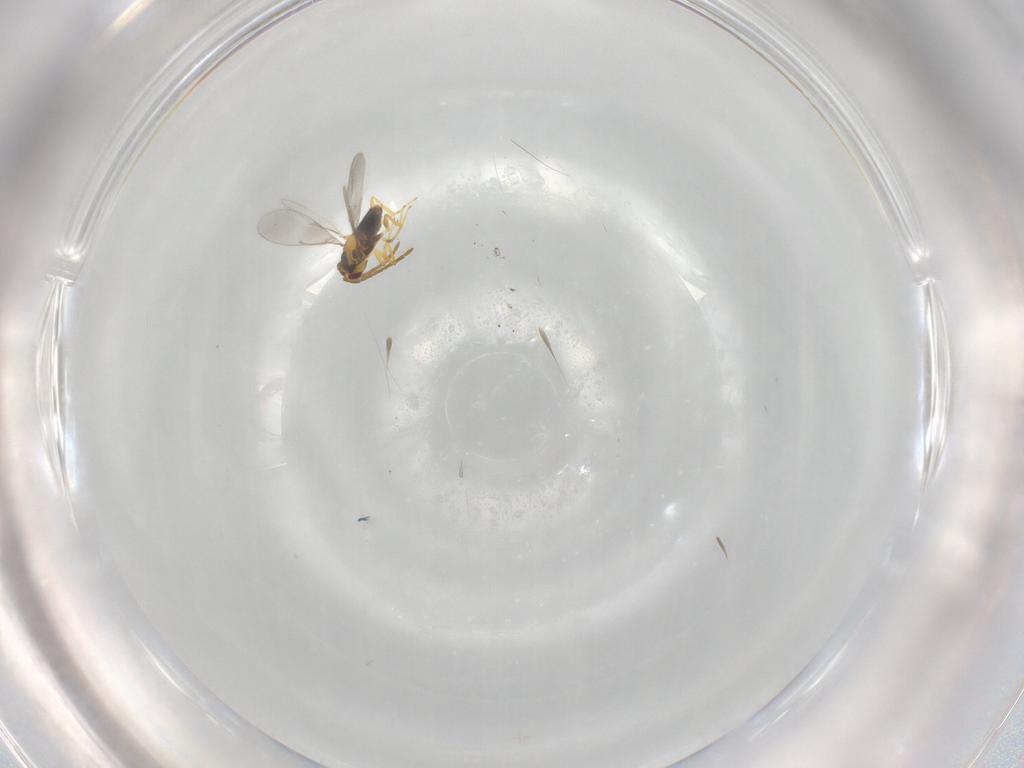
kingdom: Animalia
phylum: Arthropoda
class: Insecta
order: Hymenoptera
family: Aphelinidae
